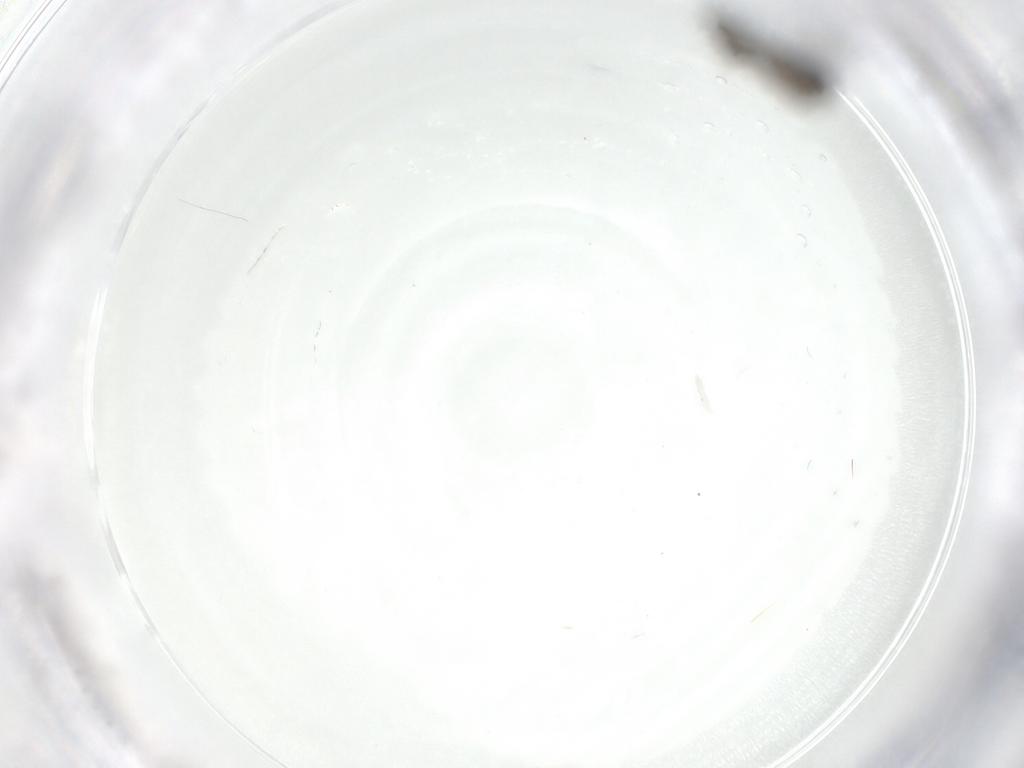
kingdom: Animalia
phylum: Arthropoda
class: Insecta
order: Diptera
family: Chironomidae
